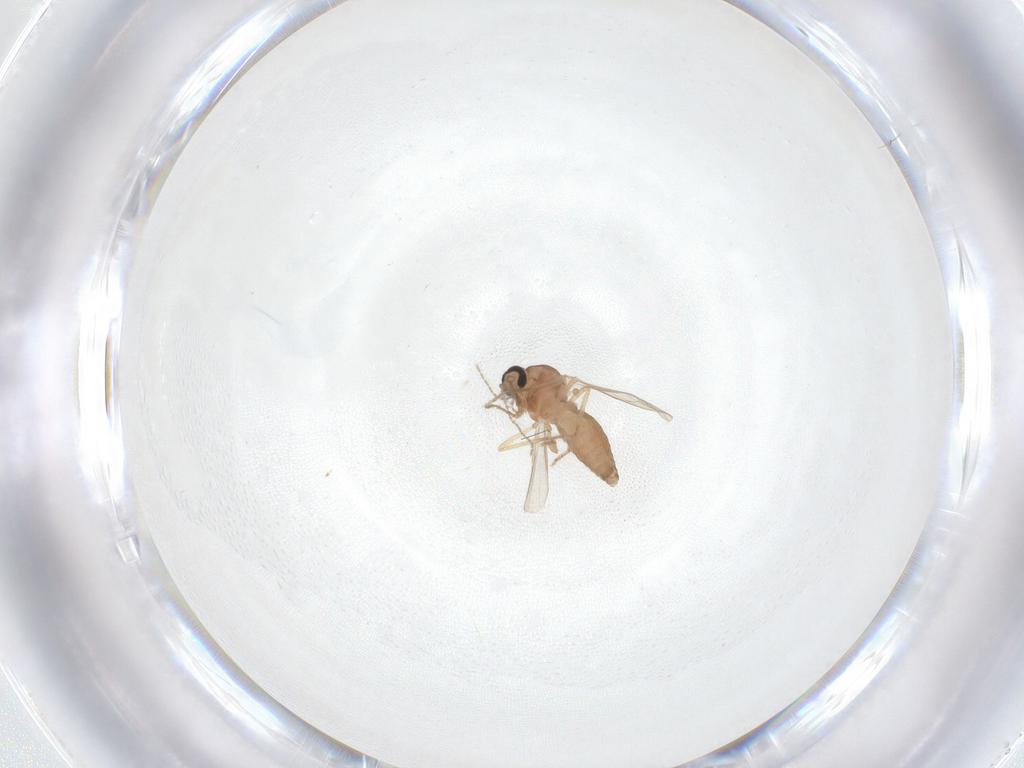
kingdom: Animalia
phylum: Arthropoda
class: Insecta
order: Diptera
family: Ceratopogonidae
